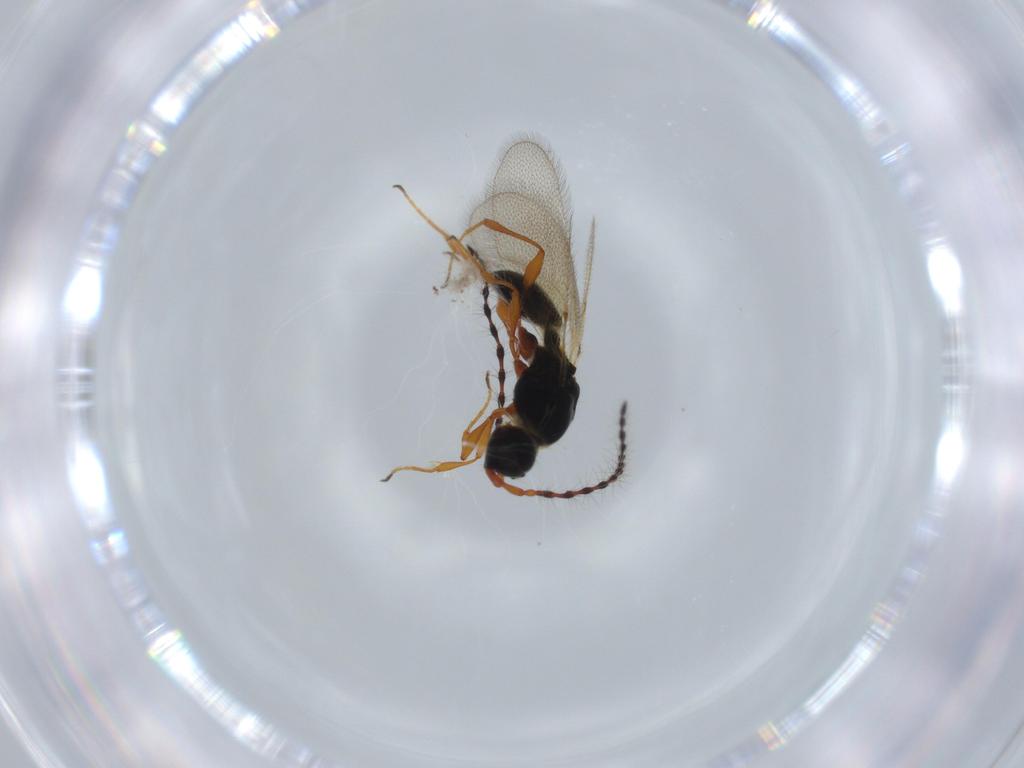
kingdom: Animalia
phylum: Arthropoda
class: Insecta
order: Hymenoptera
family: Diapriidae
